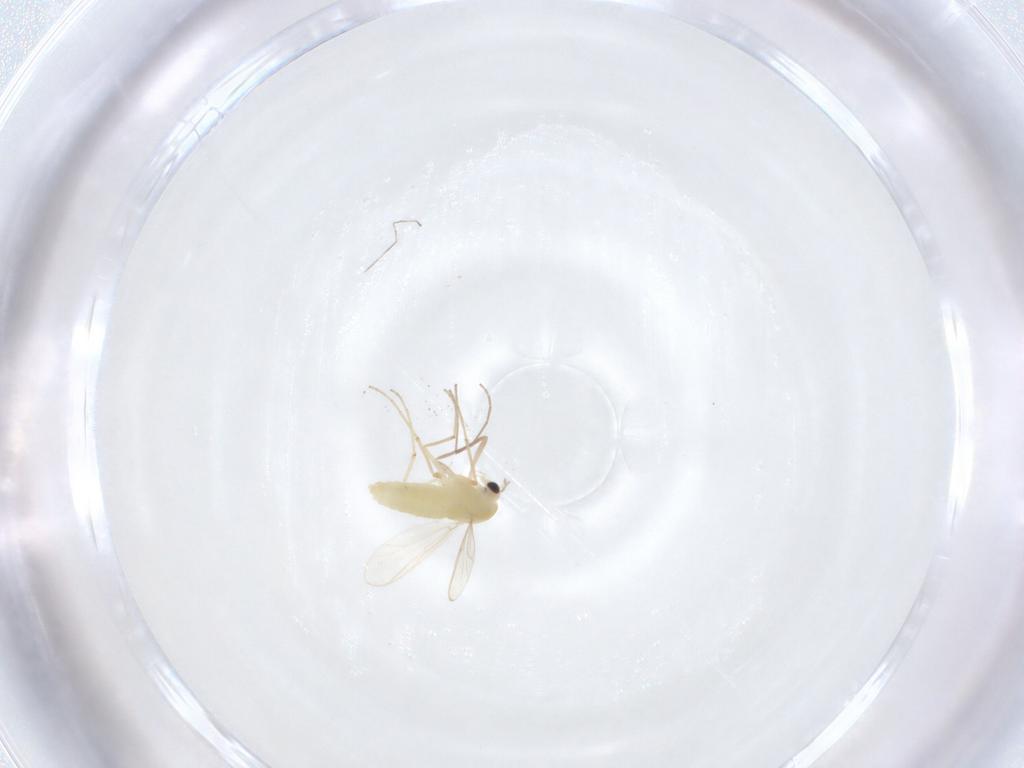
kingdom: Animalia
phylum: Arthropoda
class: Insecta
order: Diptera
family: Chironomidae
